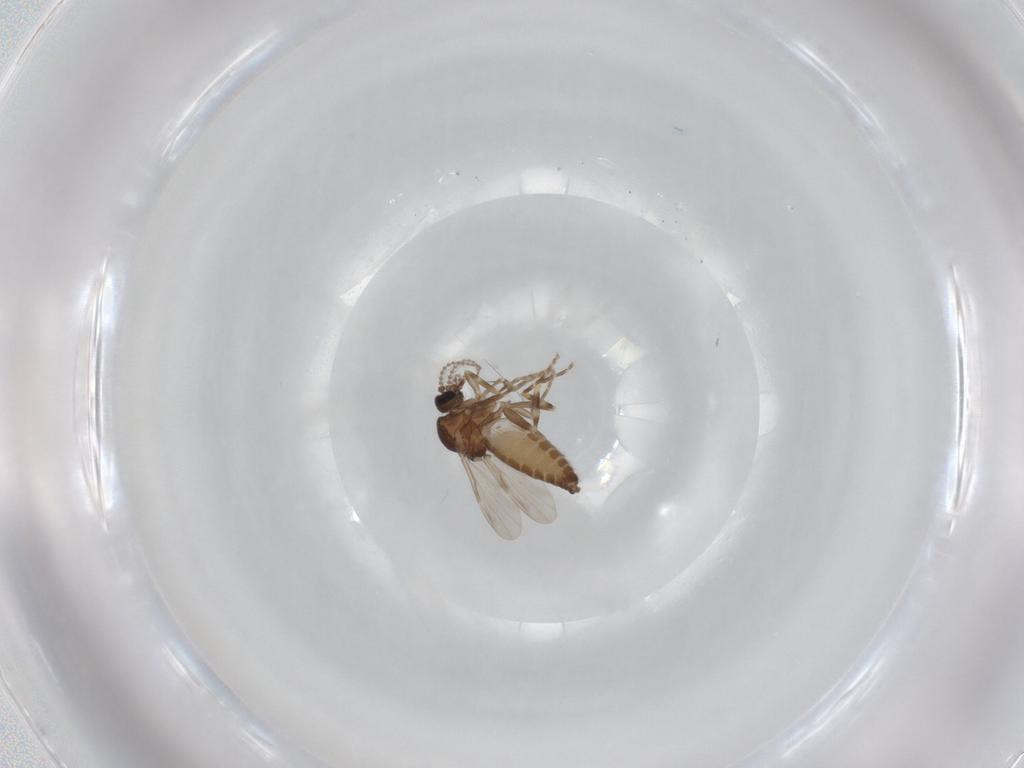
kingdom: Animalia
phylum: Arthropoda
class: Insecta
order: Diptera
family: Ceratopogonidae
